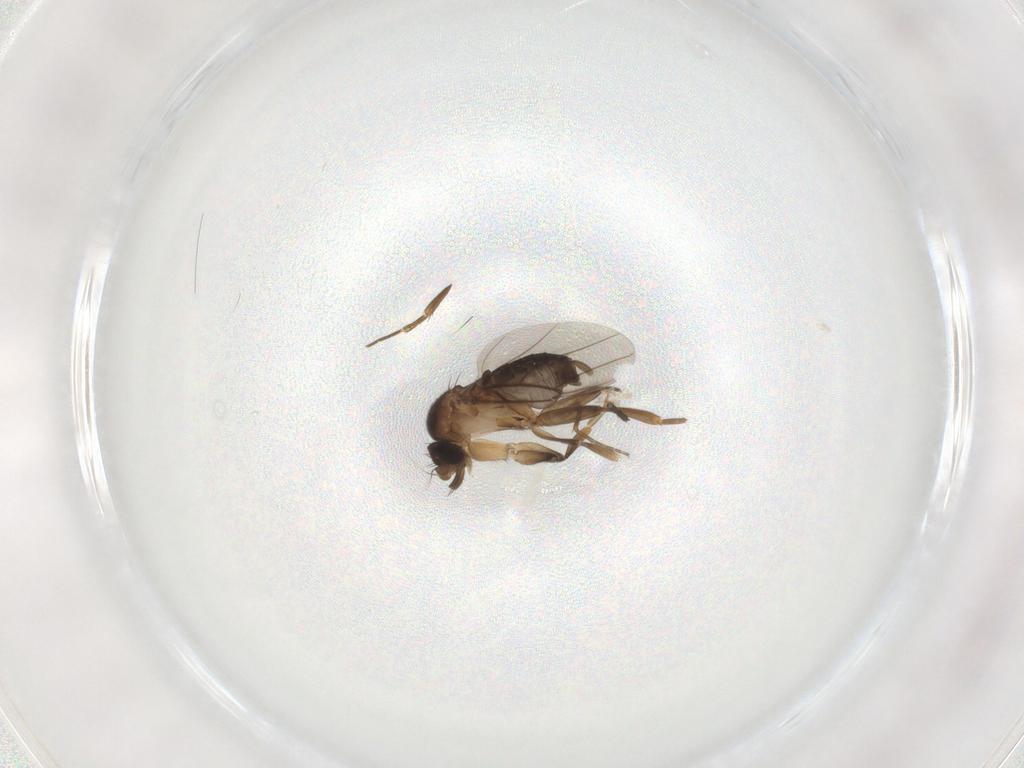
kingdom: Animalia
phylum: Arthropoda
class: Insecta
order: Diptera
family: Phoridae
